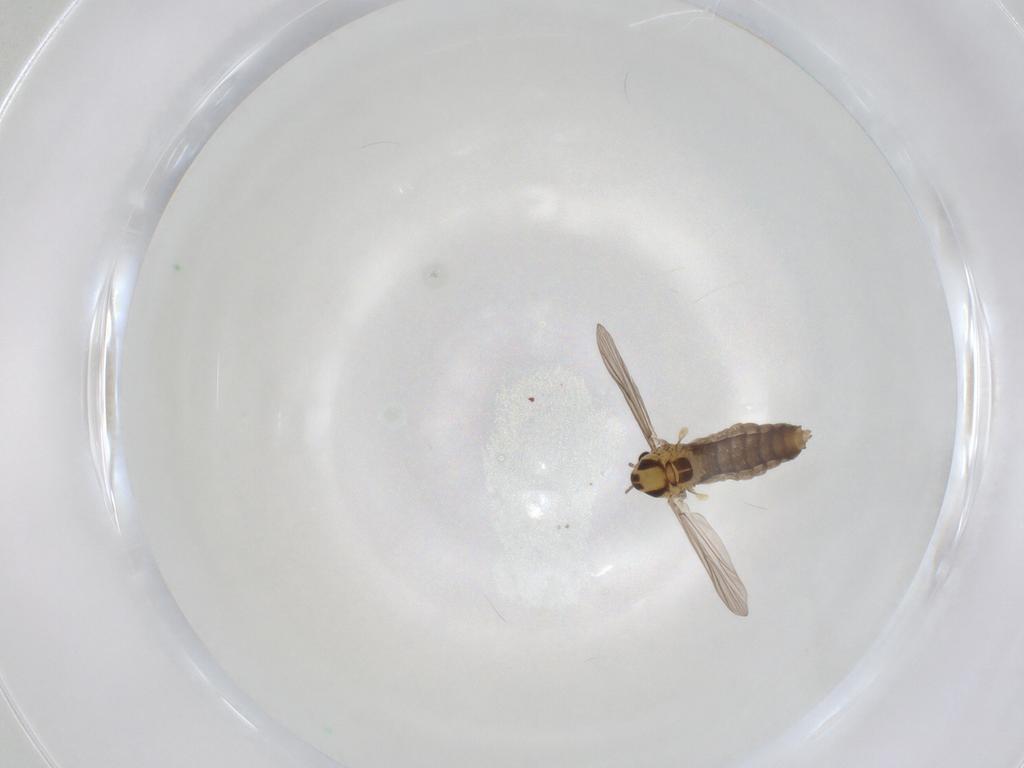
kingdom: Animalia
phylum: Arthropoda
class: Insecta
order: Diptera
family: Chironomidae
